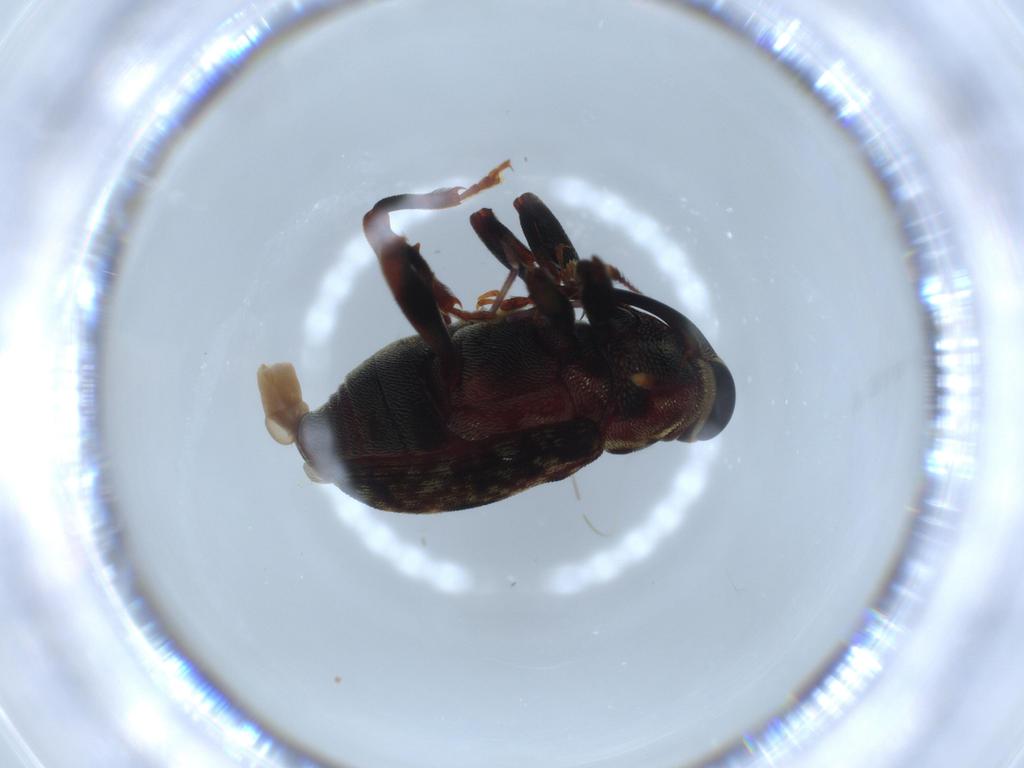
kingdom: Animalia
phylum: Arthropoda
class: Insecta
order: Coleoptera
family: Curculionidae
